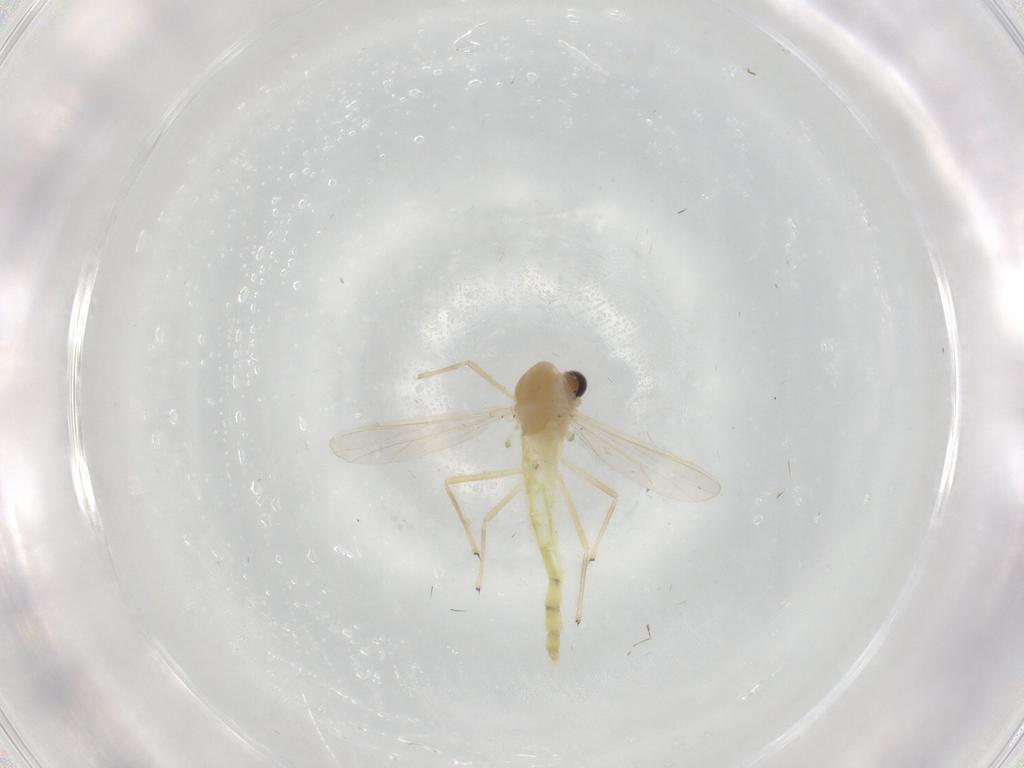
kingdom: Animalia
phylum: Arthropoda
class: Insecta
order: Diptera
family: Chironomidae
